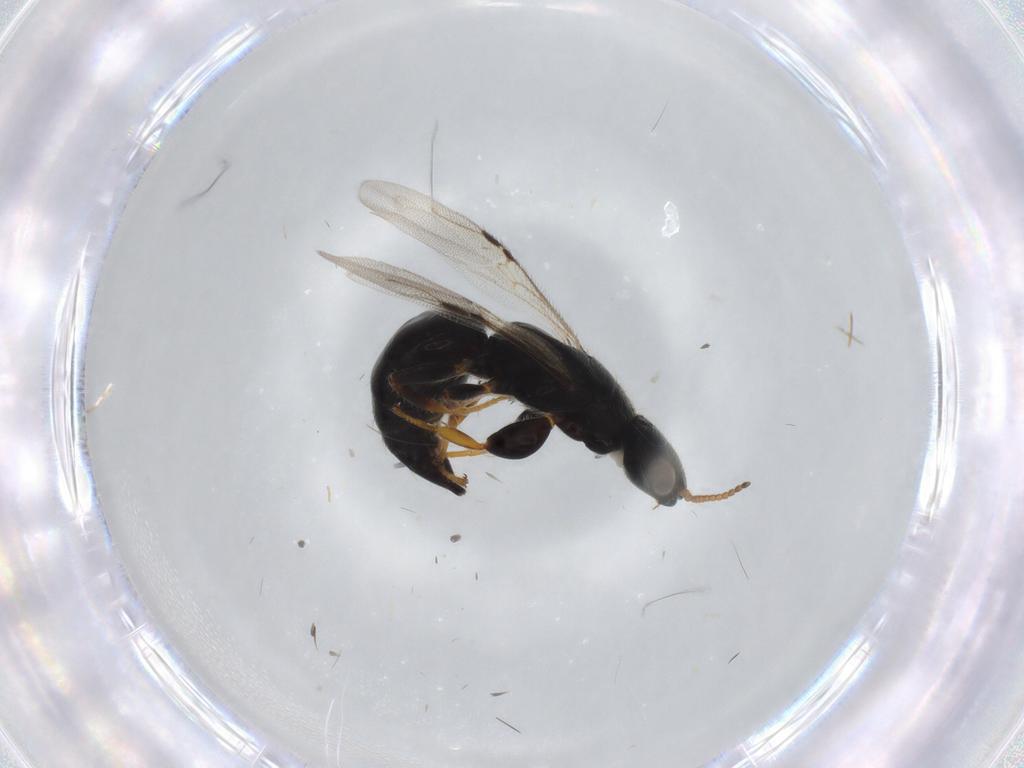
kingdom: Animalia
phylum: Arthropoda
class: Insecta
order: Hymenoptera
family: Bethylidae
